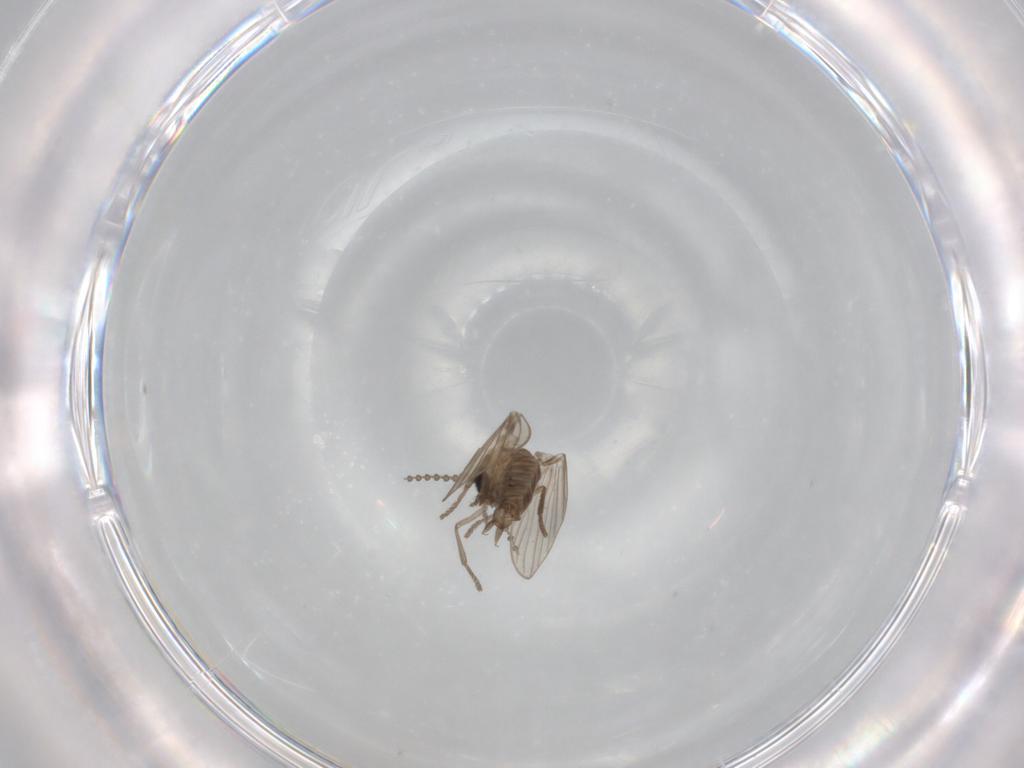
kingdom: Animalia
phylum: Arthropoda
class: Insecta
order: Diptera
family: Psychodidae
